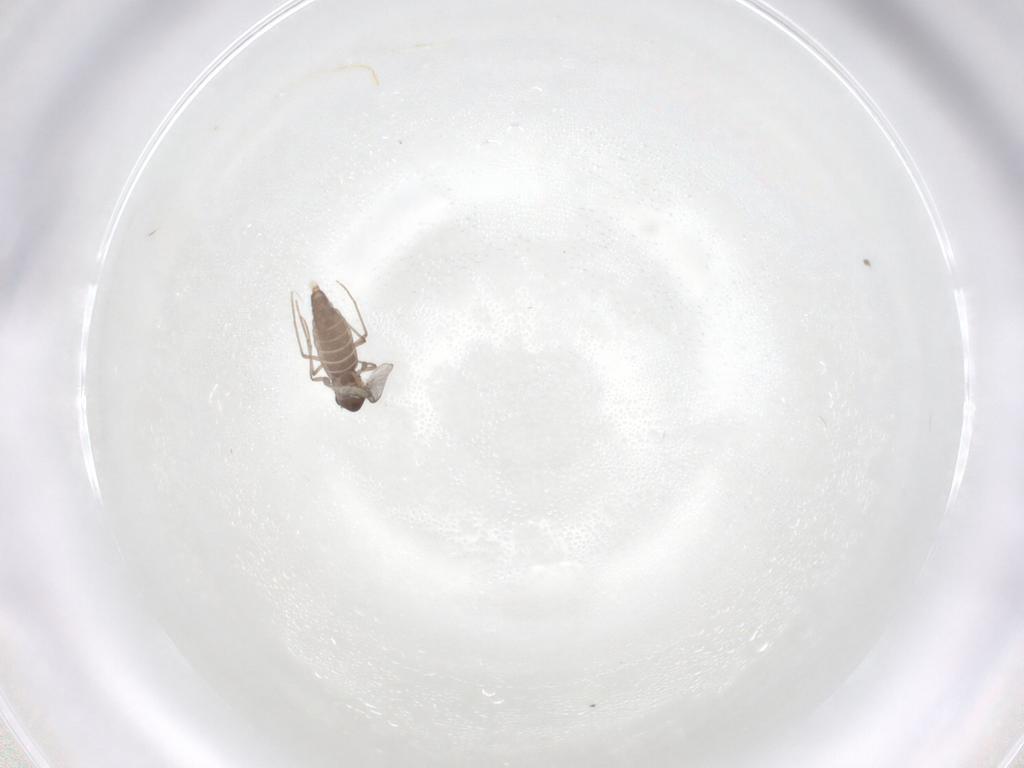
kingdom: Animalia
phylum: Arthropoda
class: Insecta
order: Diptera
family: Chironomidae
